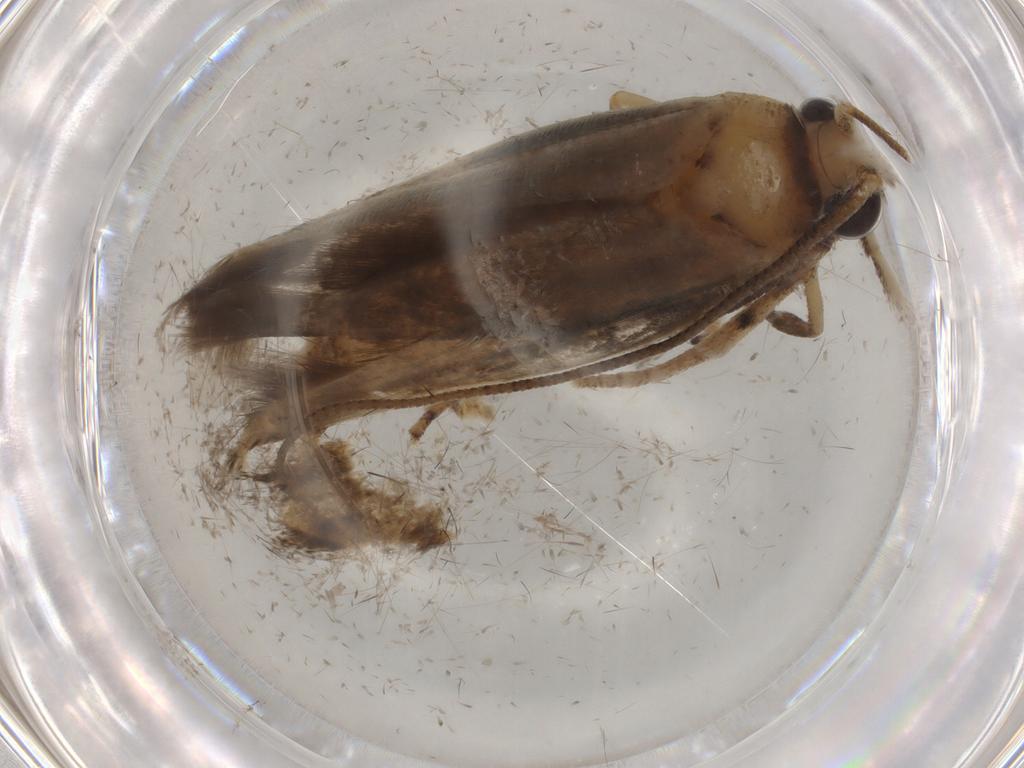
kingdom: Animalia
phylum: Arthropoda
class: Insecta
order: Lepidoptera
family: Yponomeutidae
